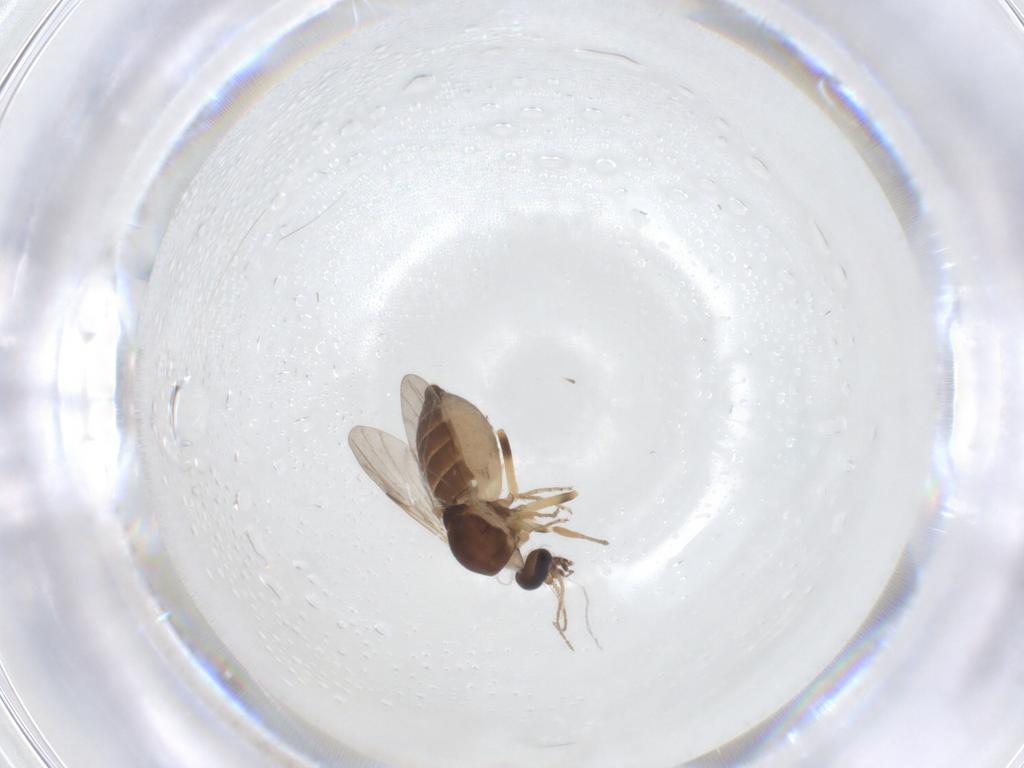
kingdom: Animalia
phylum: Arthropoda
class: Insecta
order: Diptera
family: Ceratopogonidae
